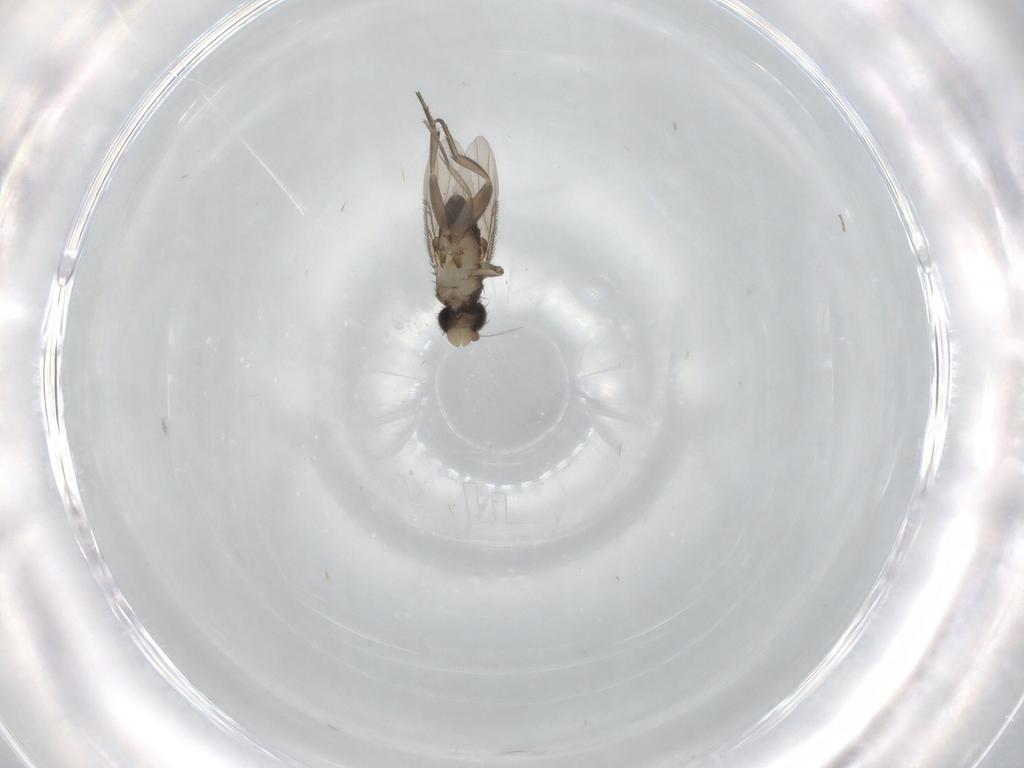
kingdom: Animalia
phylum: Arthropoda
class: Insecta
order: Diptera
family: Phoridae
